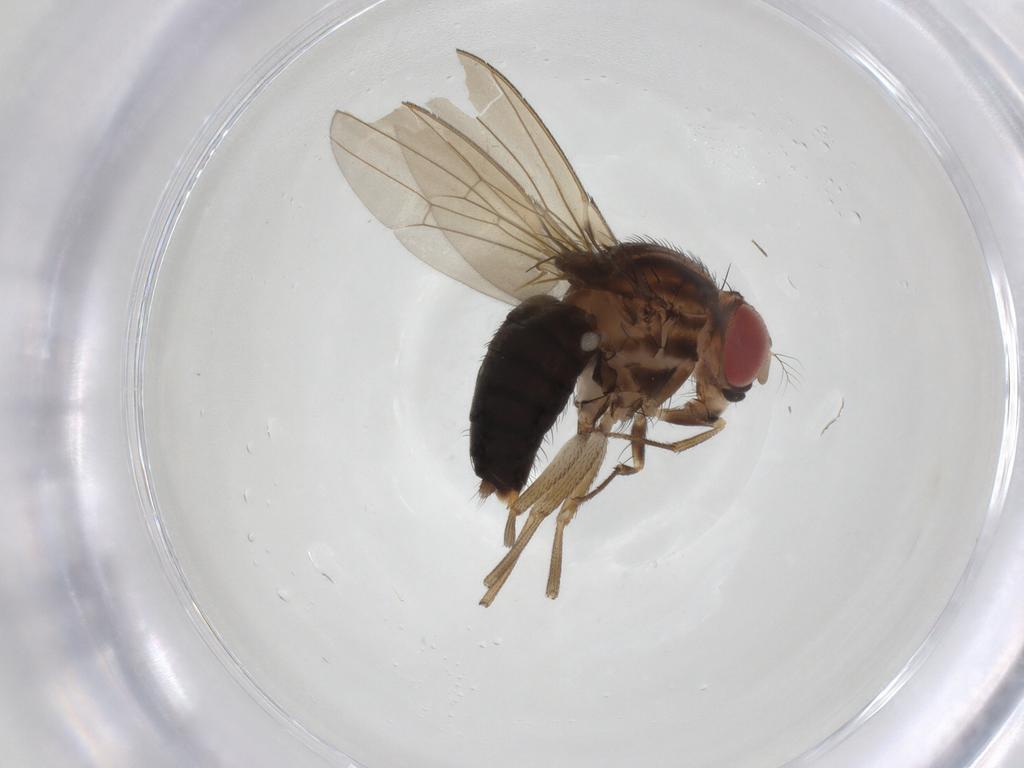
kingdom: Animalia
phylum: Arthropoda
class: Insecta
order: Diptera
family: Drosophilidae
